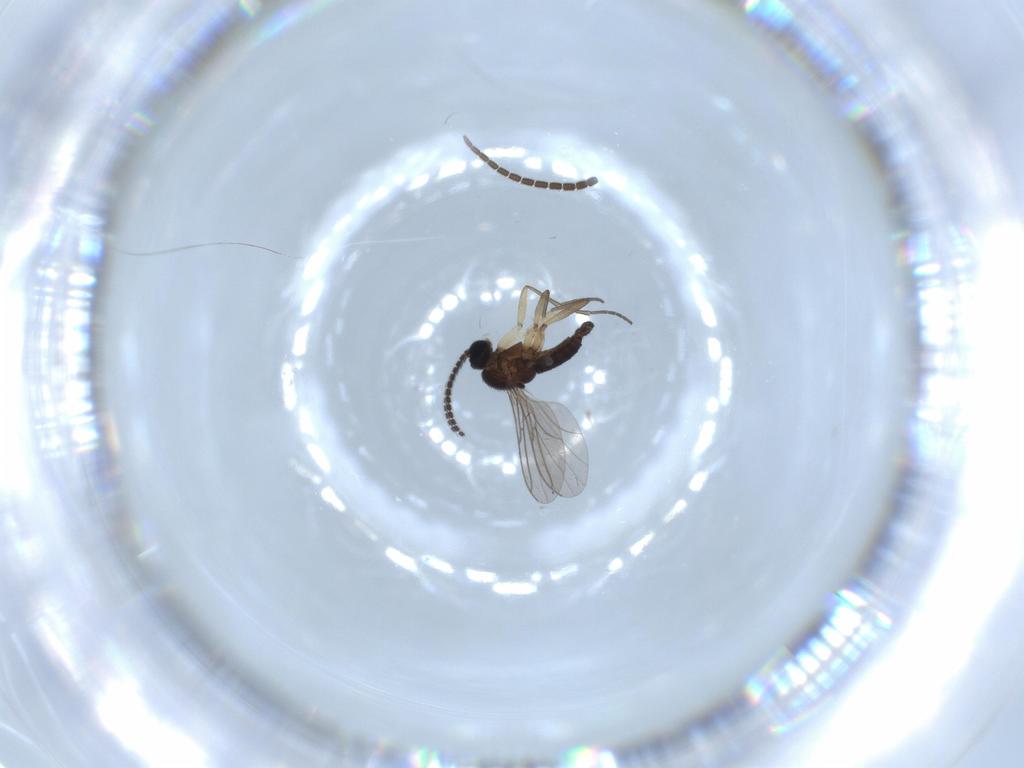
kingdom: Animalia
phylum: Arthropoda
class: Insecta
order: Diptera
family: Sciaridae
